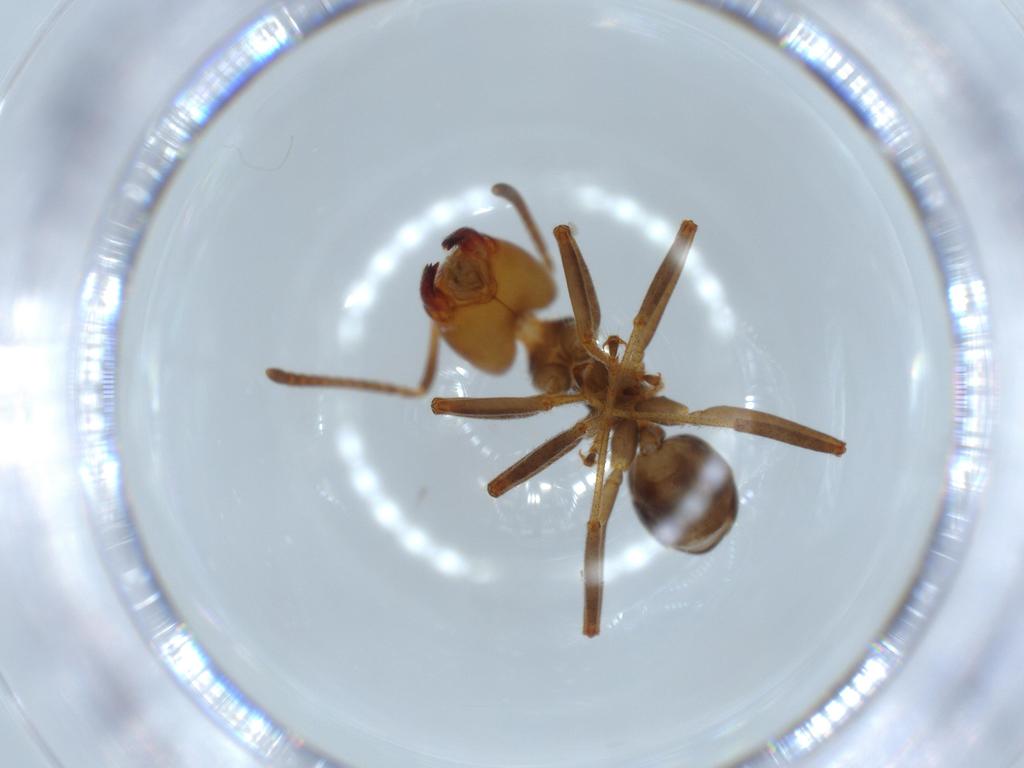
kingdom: Animalia
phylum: Arthropoda
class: Insecta
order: Hymenoptera
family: Formicidae
